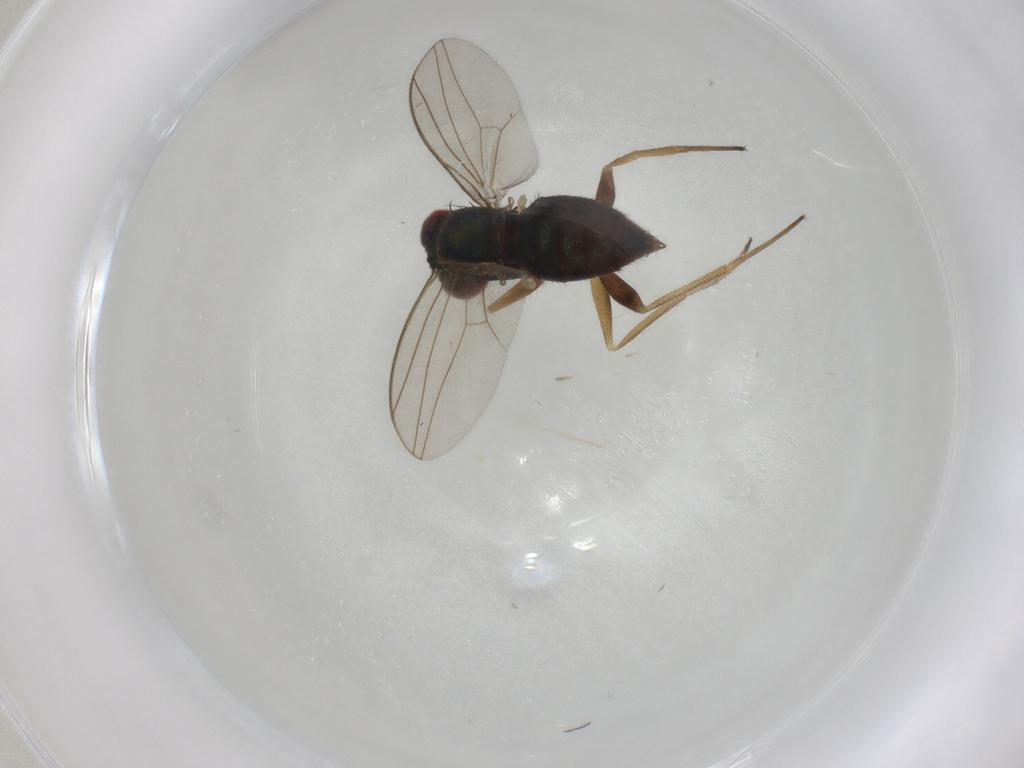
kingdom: Animalia
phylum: Arthropoda
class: Insecta
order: Diptera
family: Dolichopodidae
